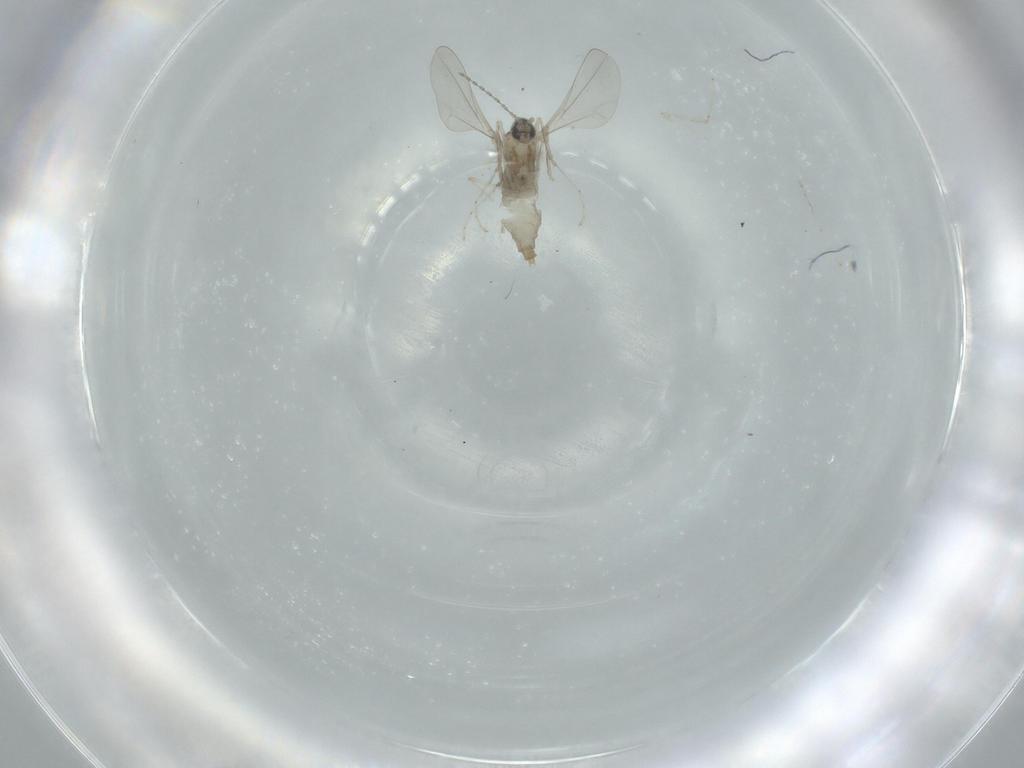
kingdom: Animalia
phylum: Arthropoda
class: Insecta
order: Diptera
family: Cecidomyiidae
